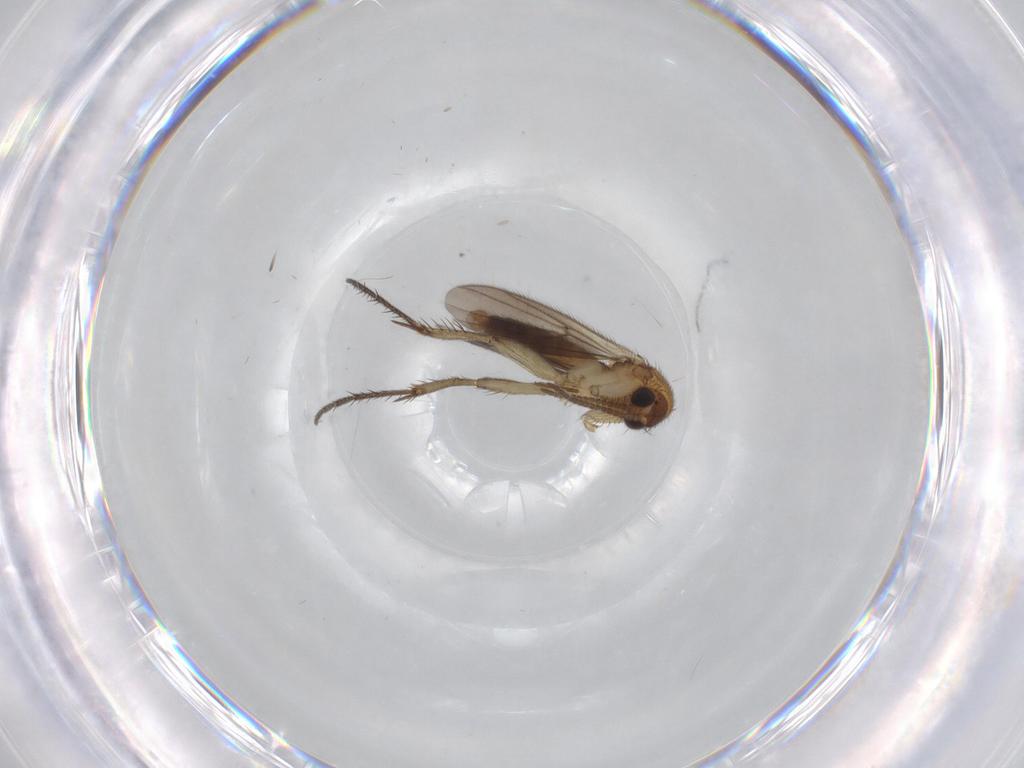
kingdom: Animalia
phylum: Arthropoda
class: Insecta
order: Diptera
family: Mycetophilidae
